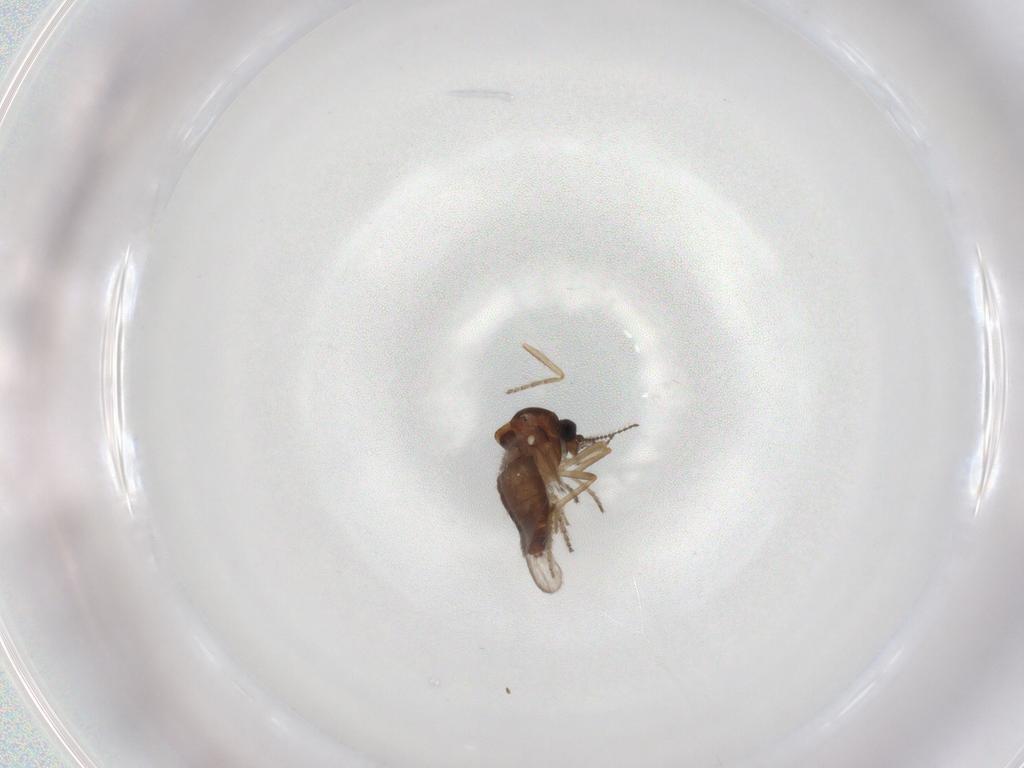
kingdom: Animalia
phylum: Arthropoda
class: Insecta
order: Diptera
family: Ceratopogonidae
